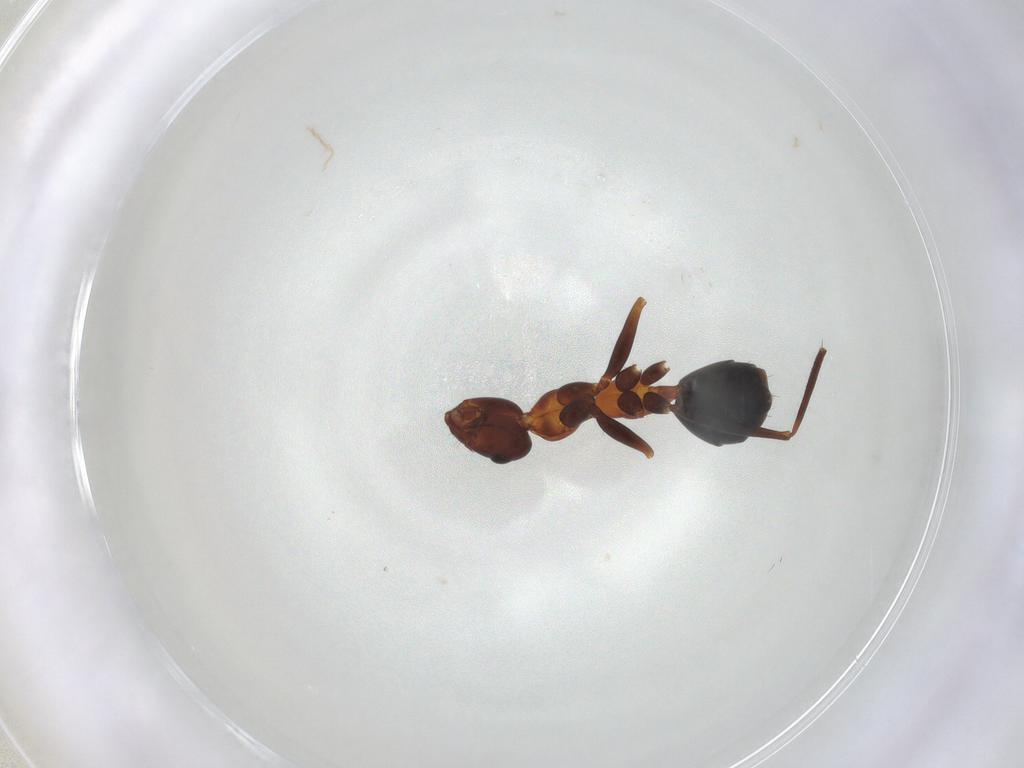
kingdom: Animalia
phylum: Arthropoda
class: Insecta
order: Hymenoptera
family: Formicidae
